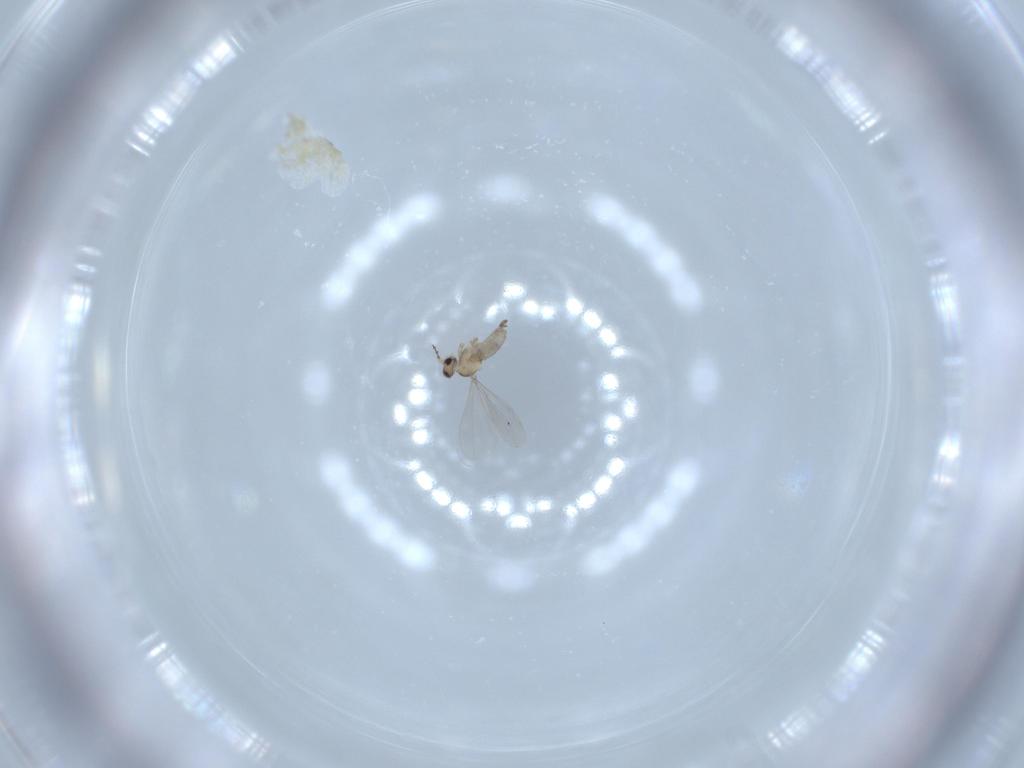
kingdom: Animalia
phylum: Arthropoda
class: Insecta
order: Diptera
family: Cecidomyiidae
